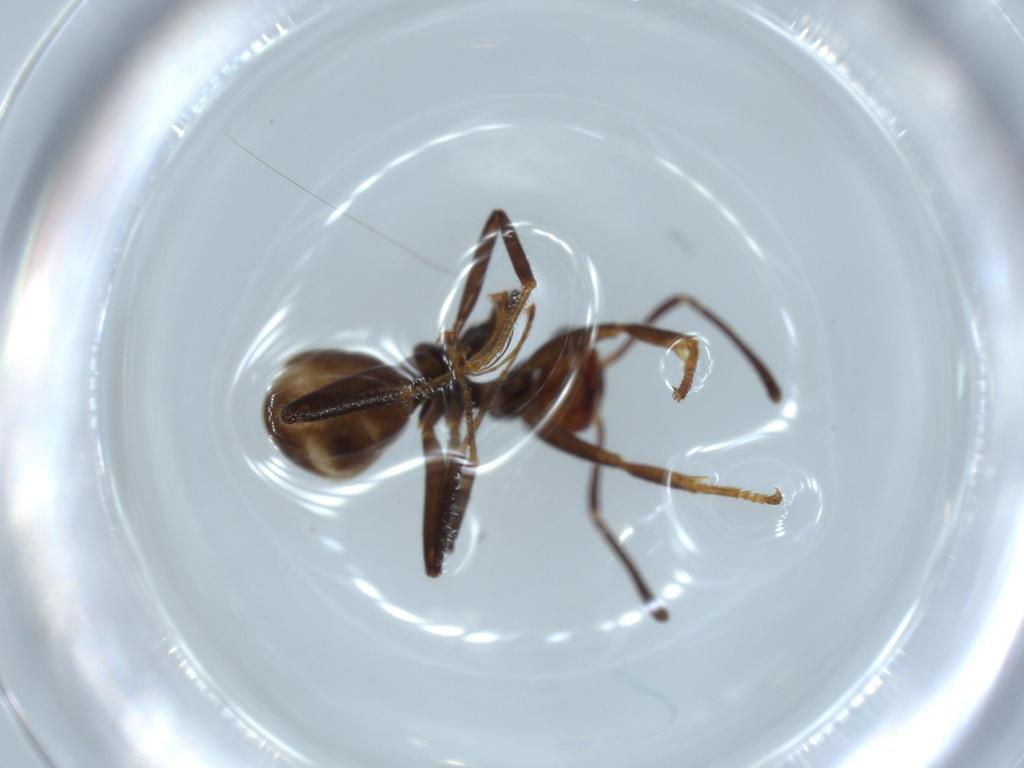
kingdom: Animalia
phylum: Arthropoda
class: Insecta
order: Hymenoptera
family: Formicidae
